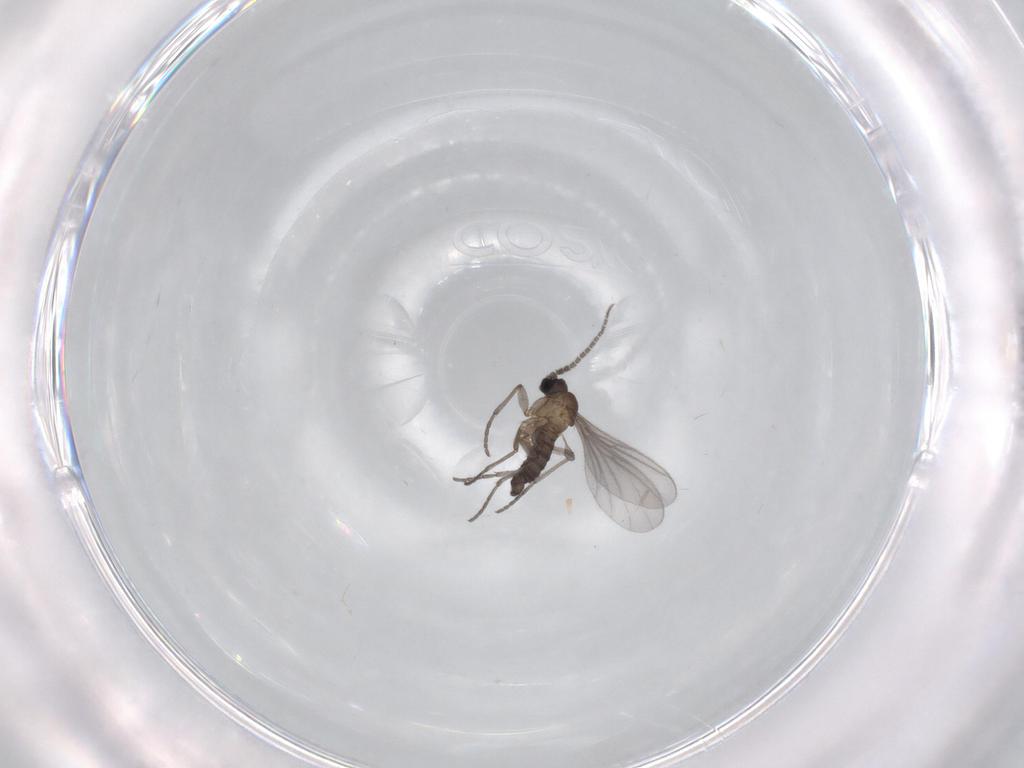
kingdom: Animalia
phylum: Arthropoda
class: Insecta
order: Diptera
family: Sciaridae
